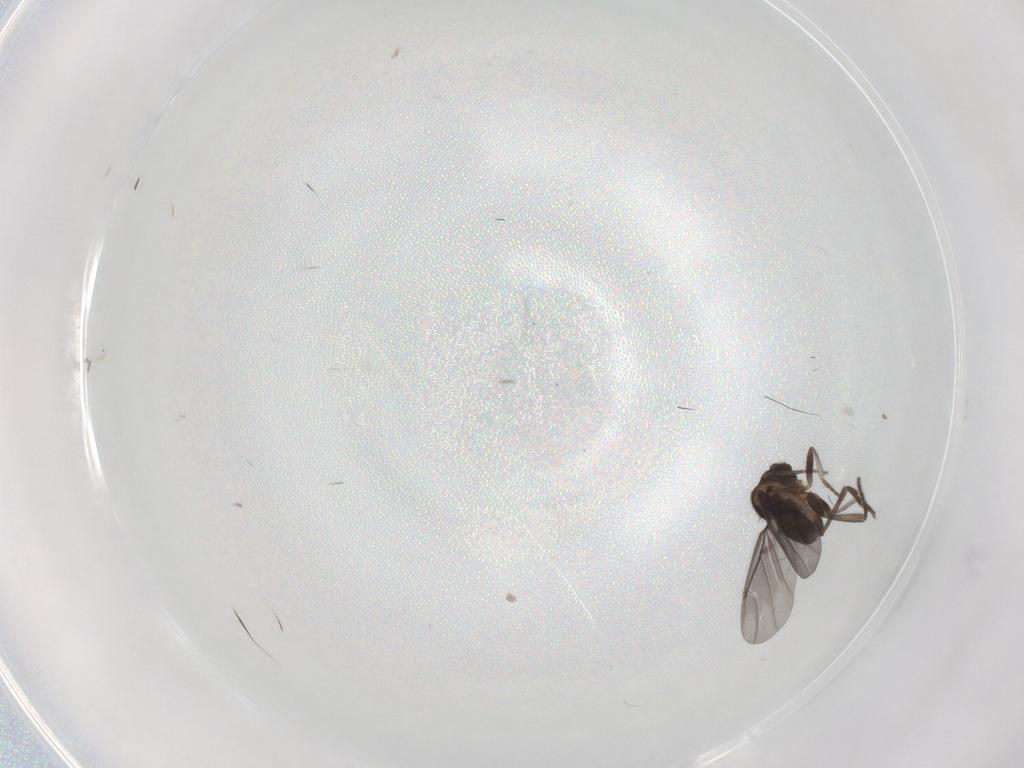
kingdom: Animalia
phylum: Arthropoda
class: Insecta
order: Diptera
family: Phoridae
